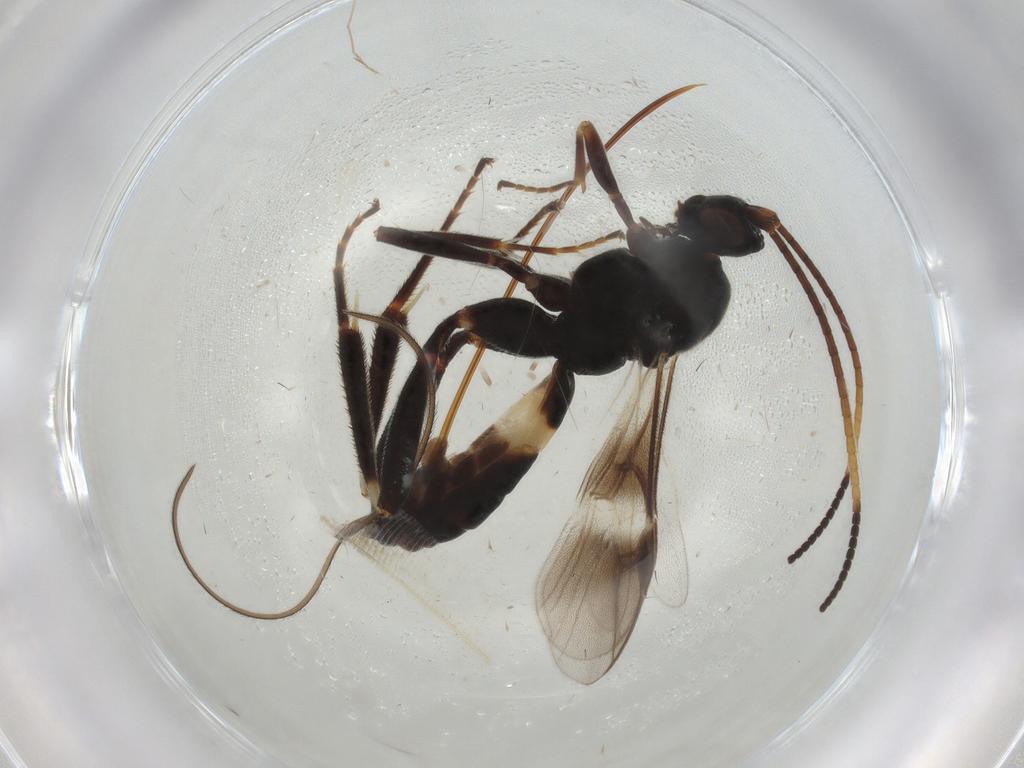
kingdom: Animalia
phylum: Arthropoda
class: Insecta
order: Hymenoptera
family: Braconidae
